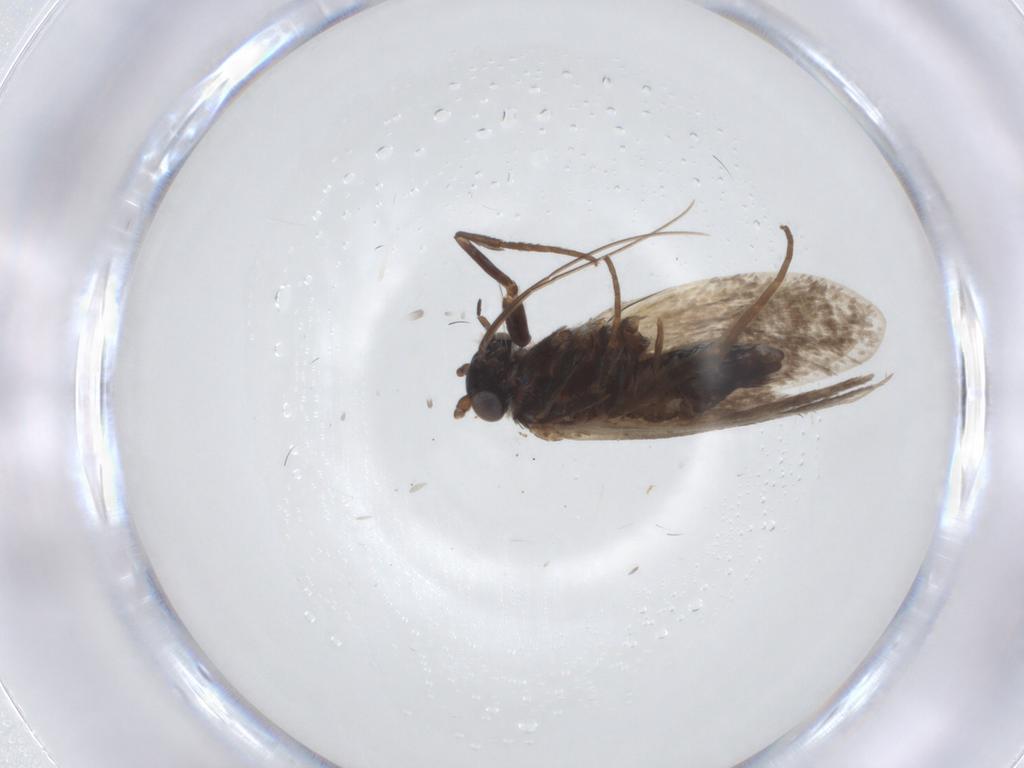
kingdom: Animalia
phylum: Arthropoda
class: Insecta
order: Lepidoptera
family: Adelidae
